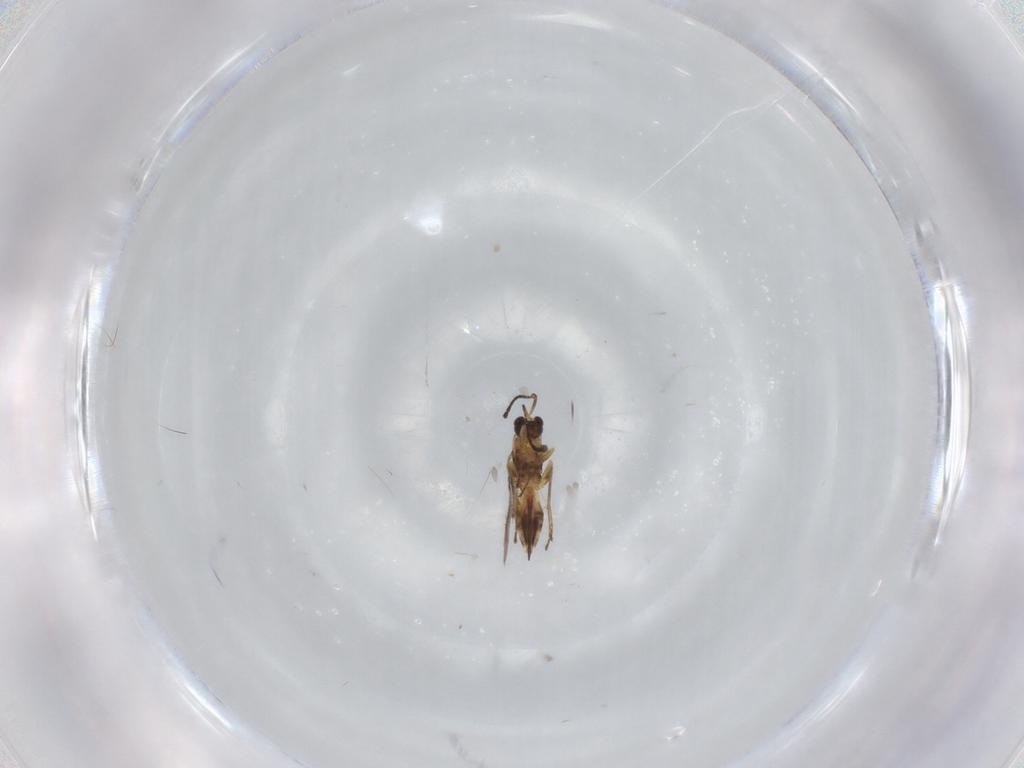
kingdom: Animalia
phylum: Arthropoda
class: Insecta
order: Hymenoptera
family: Mymaridae
